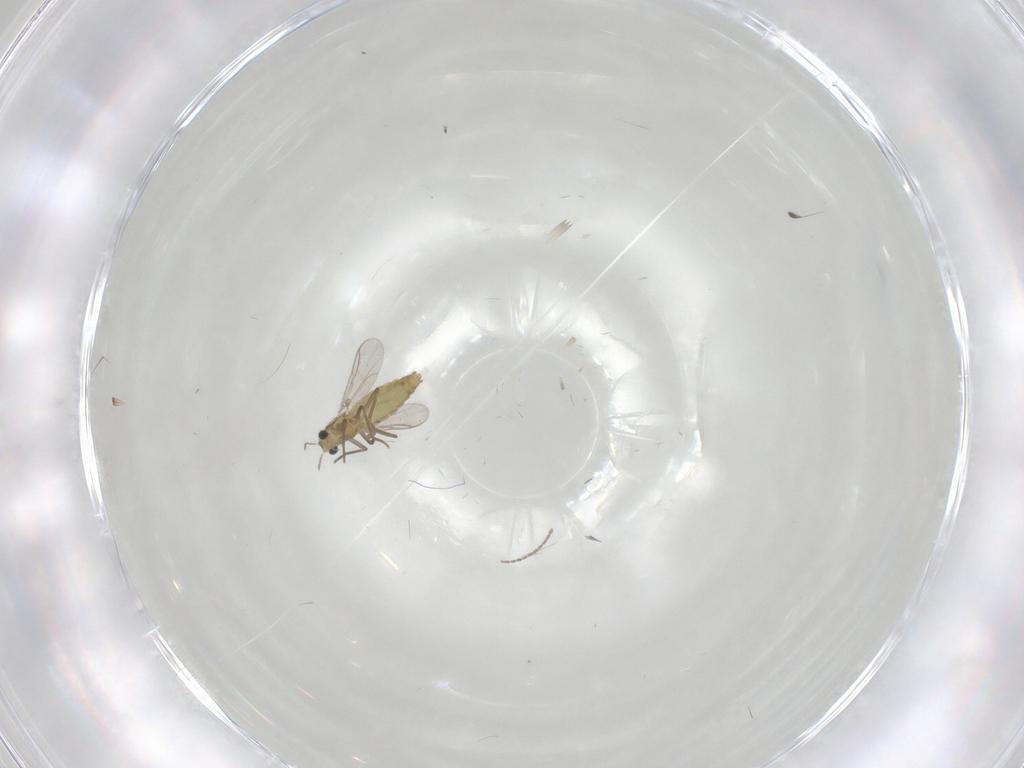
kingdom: Animalia
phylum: Arthropoda
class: Insecta
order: Diptera
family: Chironomidae
